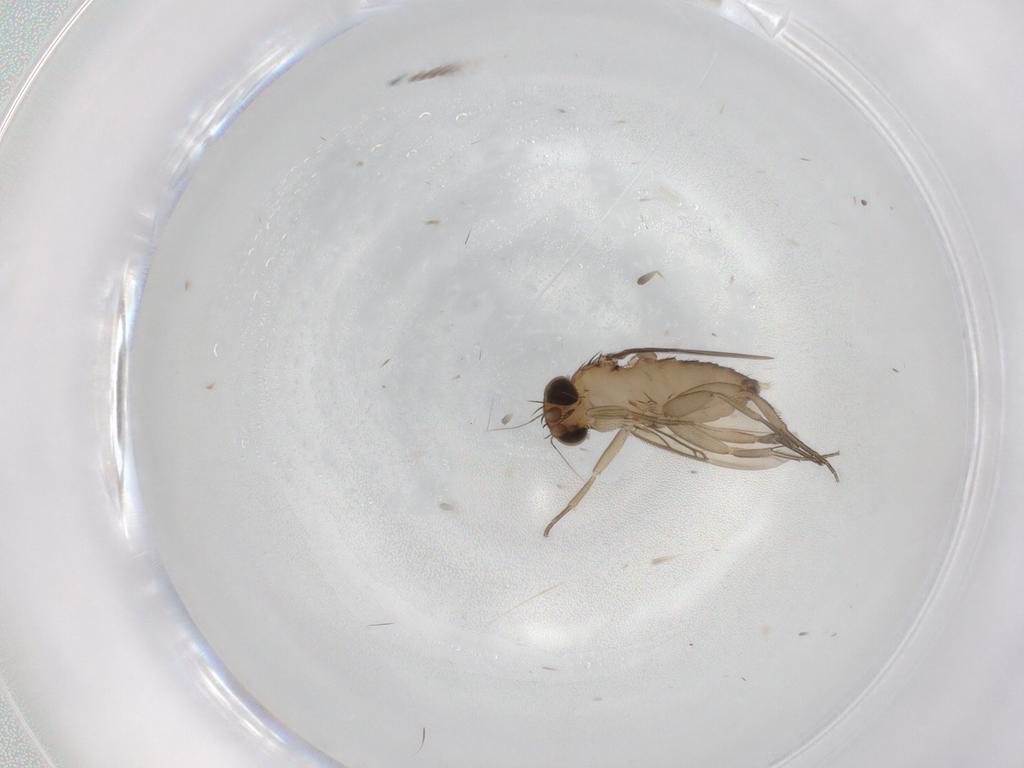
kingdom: Animalia
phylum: Arthropoda
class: Insecta
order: Diptera
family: Phoridae
